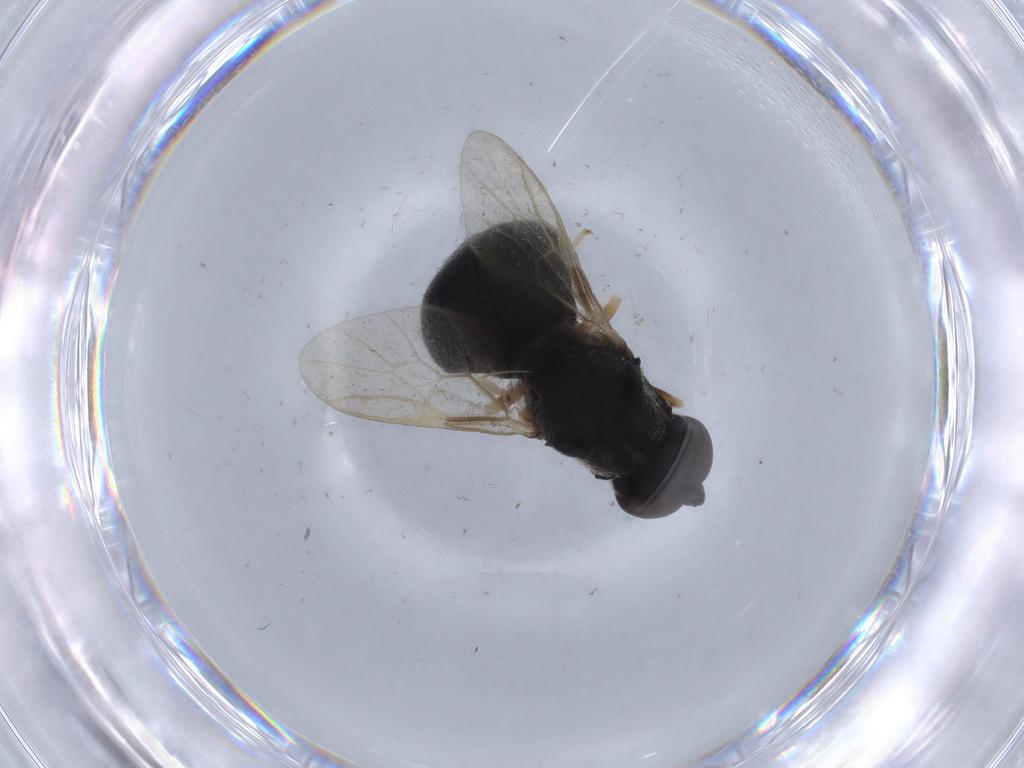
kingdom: Animalia
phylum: Arthropoda
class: Insecta
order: Diptera
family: Stratiomyidae
